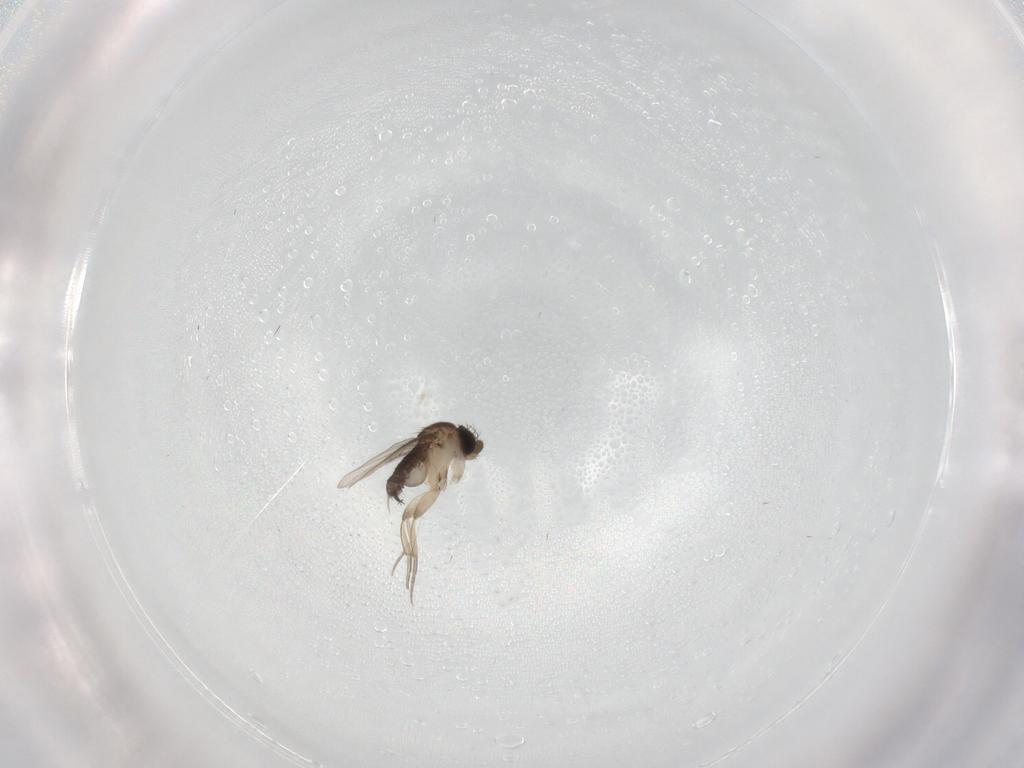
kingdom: Animalia
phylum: Arthropoda
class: Insecta
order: Diptera
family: Phoridae
